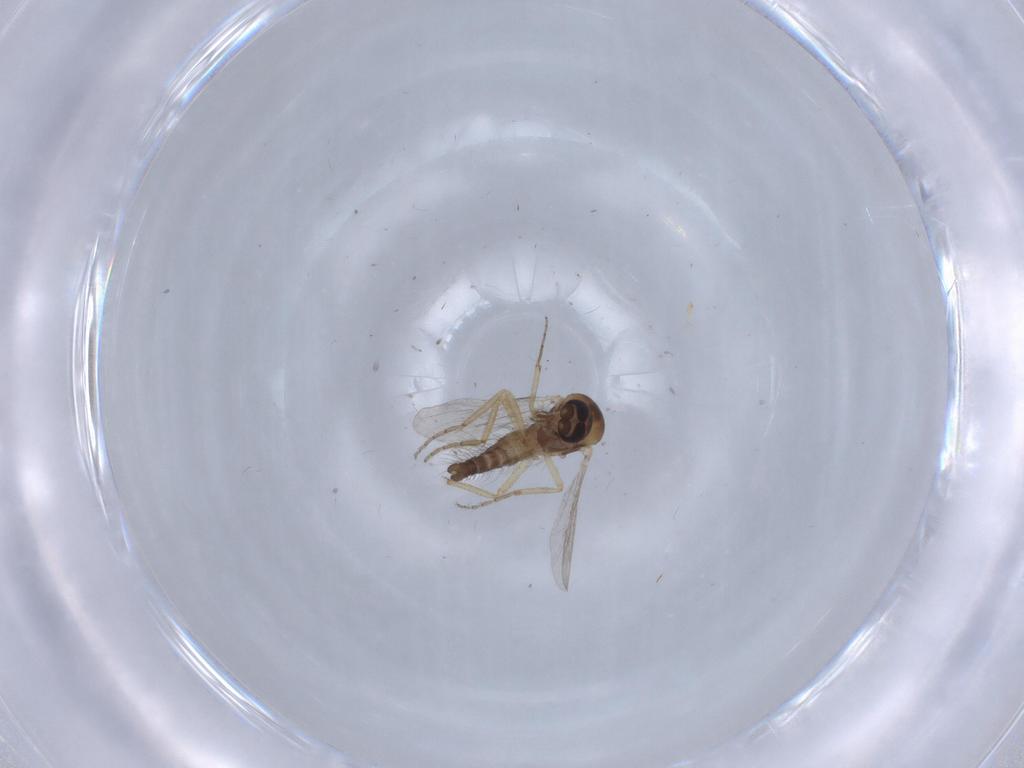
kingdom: Animalia
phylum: Arthropoda
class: Insecta
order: Diptera
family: Ceratopogonidae
